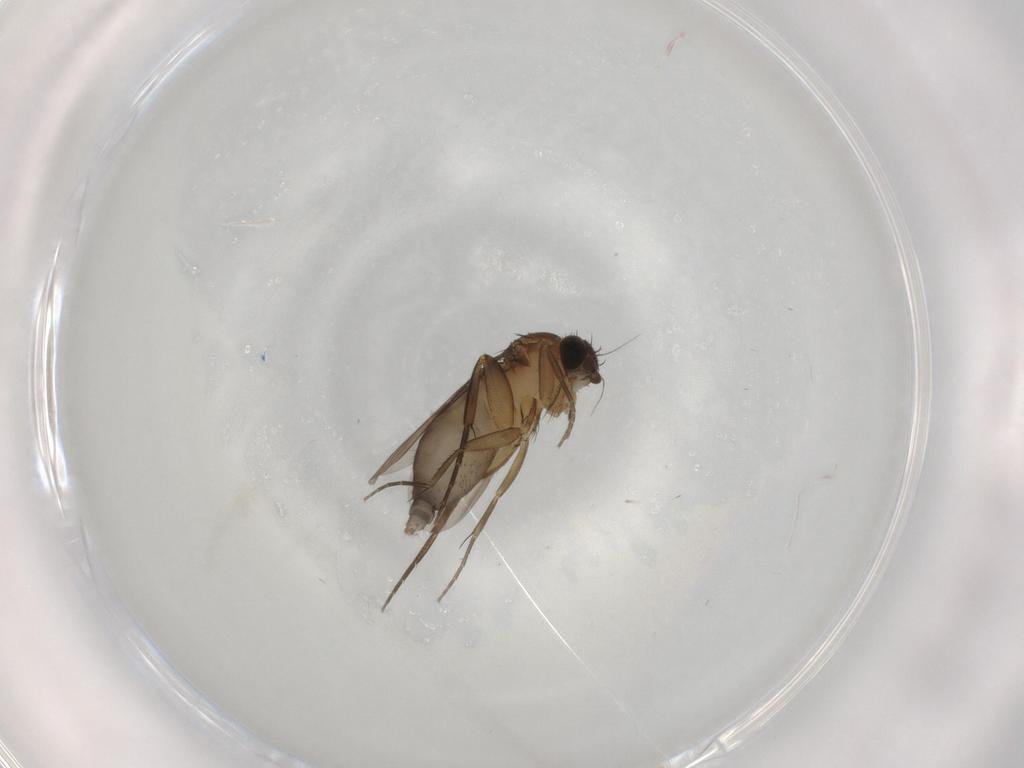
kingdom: Animalia
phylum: Arthropoda
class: Insecta
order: Diptera
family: Phoridae
